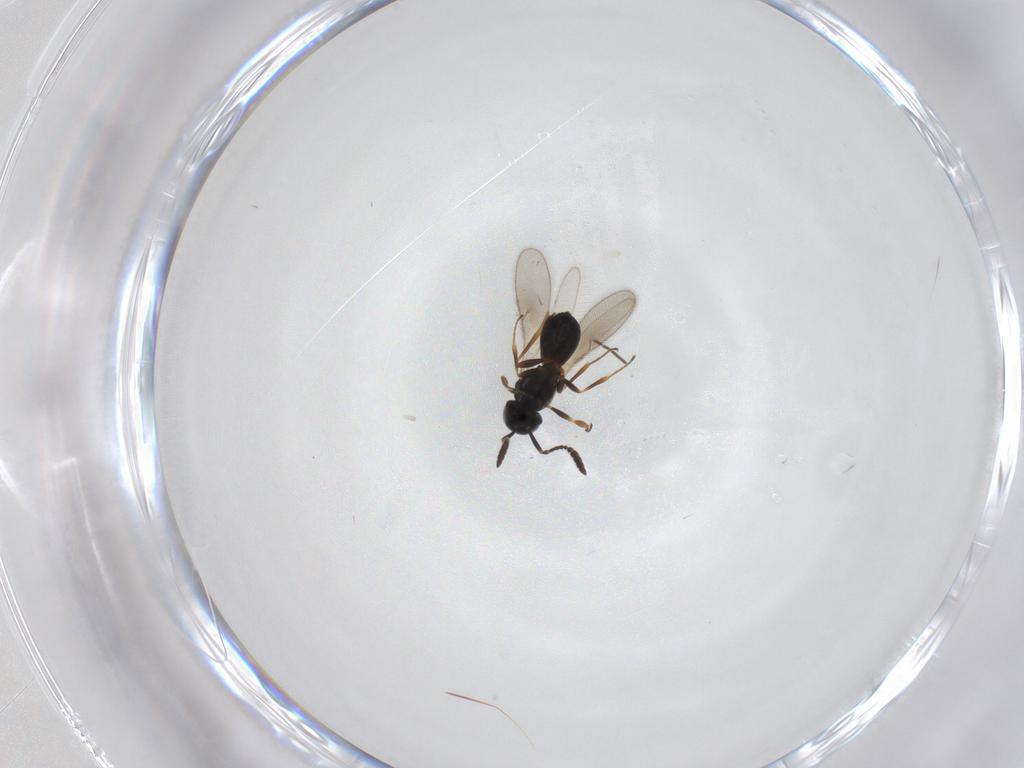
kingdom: Animalia
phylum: Arthropoda
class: Insecta
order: Hymenoptera
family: Scelionidae
